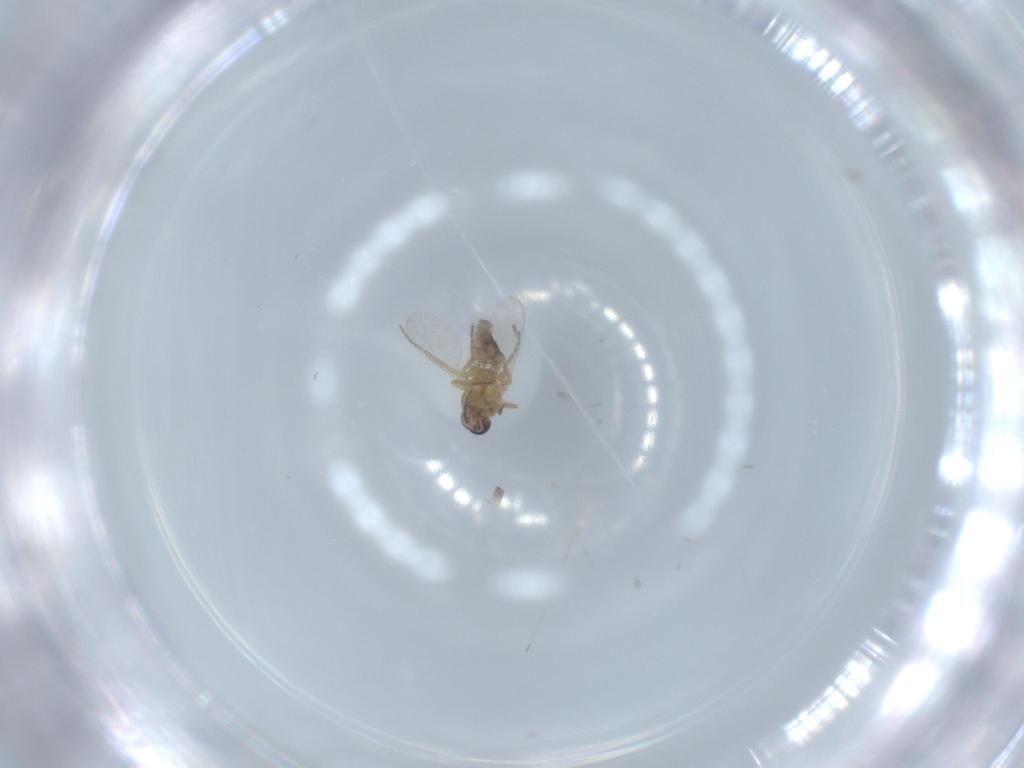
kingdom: Animalia
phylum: Arthropoda
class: Insecta
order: Diptera
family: Ceratopogonidae
